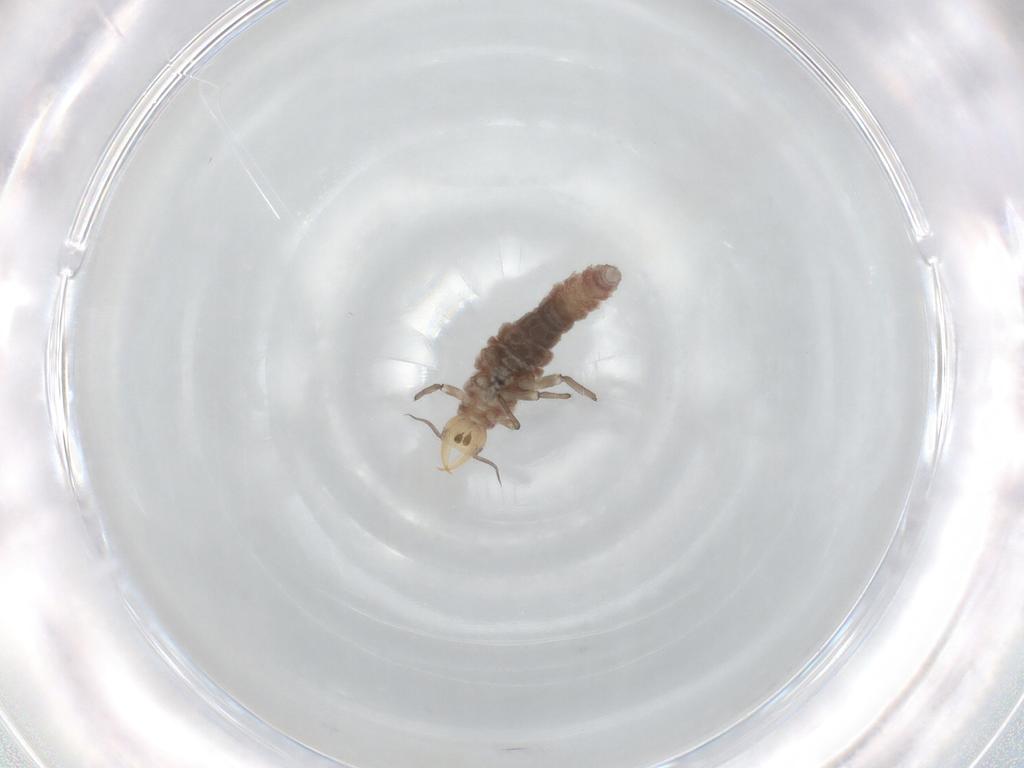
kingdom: Animalia
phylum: Arthropoda
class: Insecta
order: Neuroptera
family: Hemerobiidae
